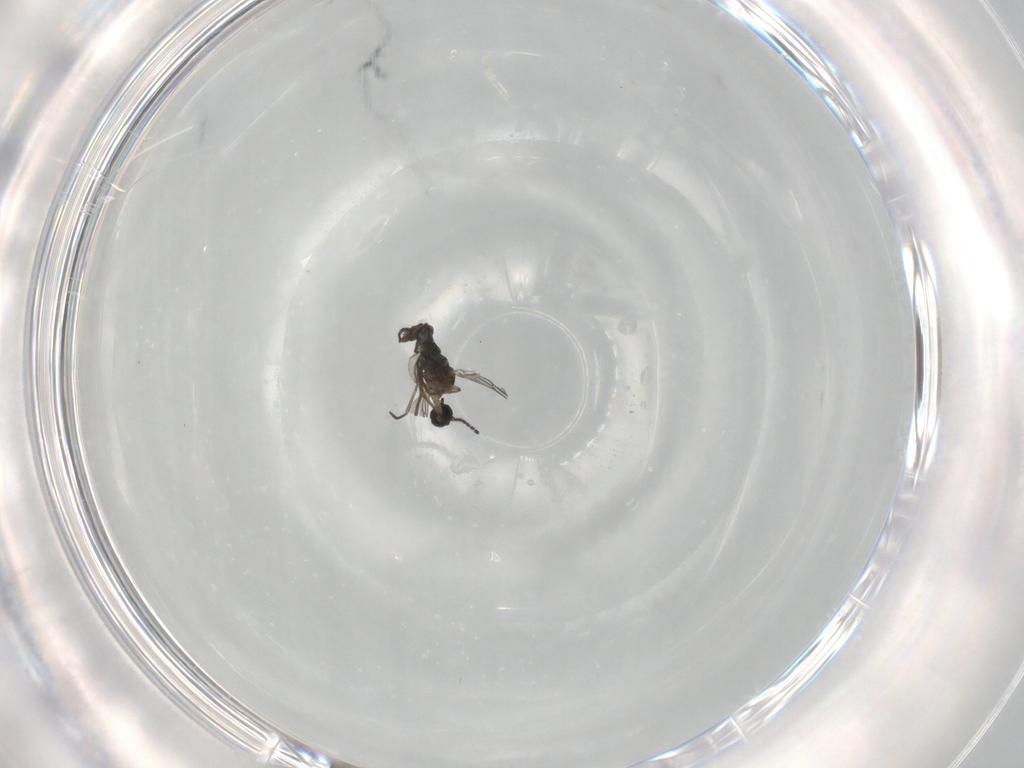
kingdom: Animalia
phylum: Arthropoda
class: Insecta
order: Diptera
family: Sciaridae
